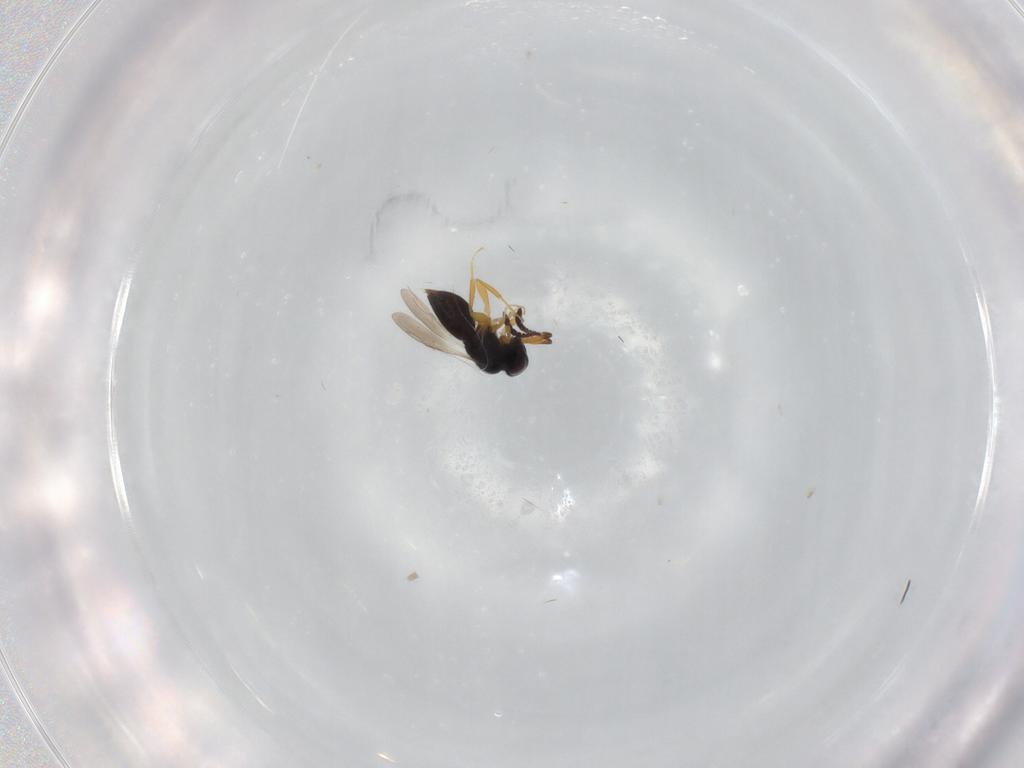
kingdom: Animalia
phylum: Arthropoda
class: Insecta
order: Hymenoptera
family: Ceraphronidae
